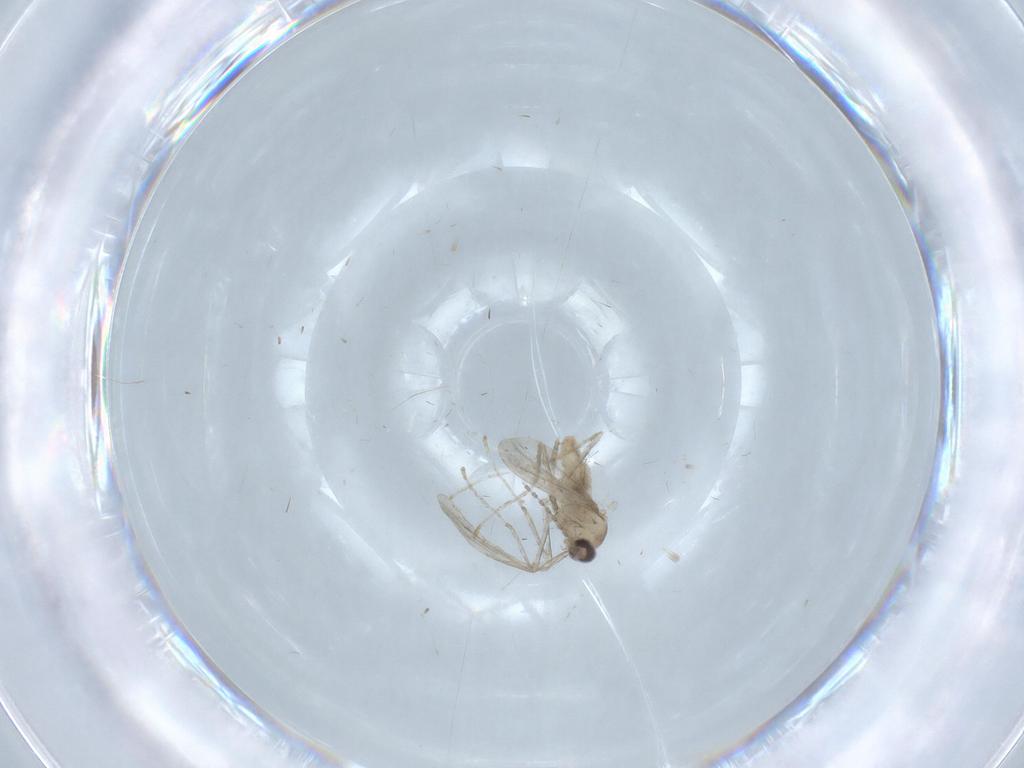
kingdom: Animalia
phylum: Arthropoda
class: Insecta
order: Diptera
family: Cecidomyiidae
